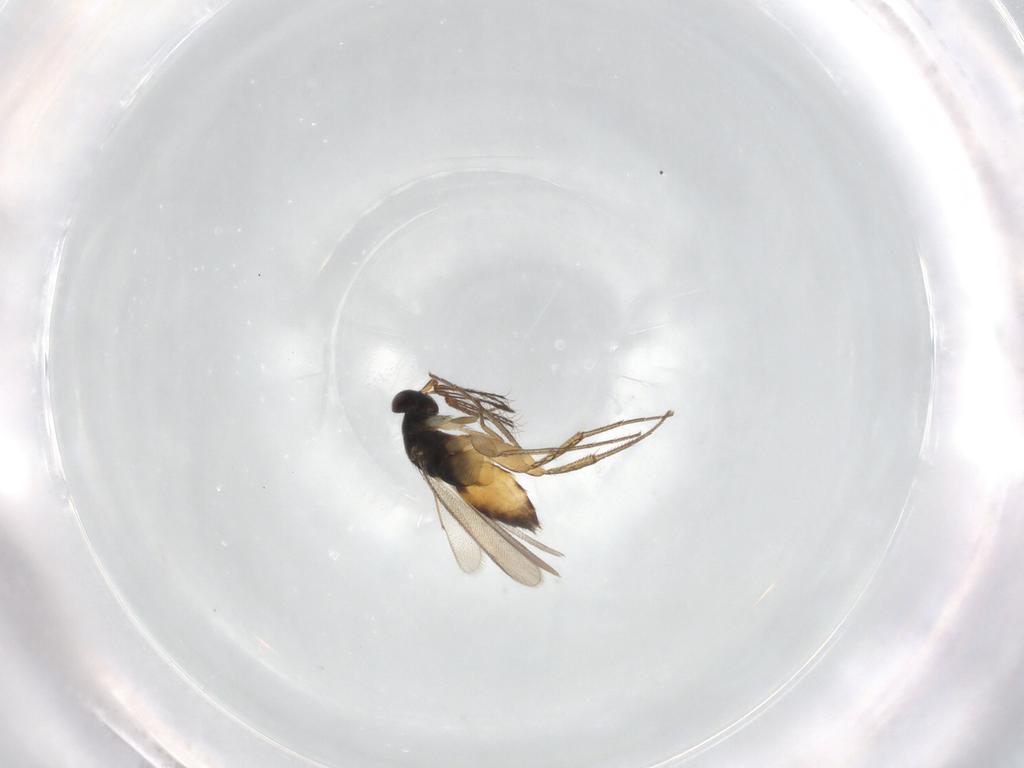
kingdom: Animalia
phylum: Arthropoda
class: Insecta
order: Hymenoptera
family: Eulophidae
